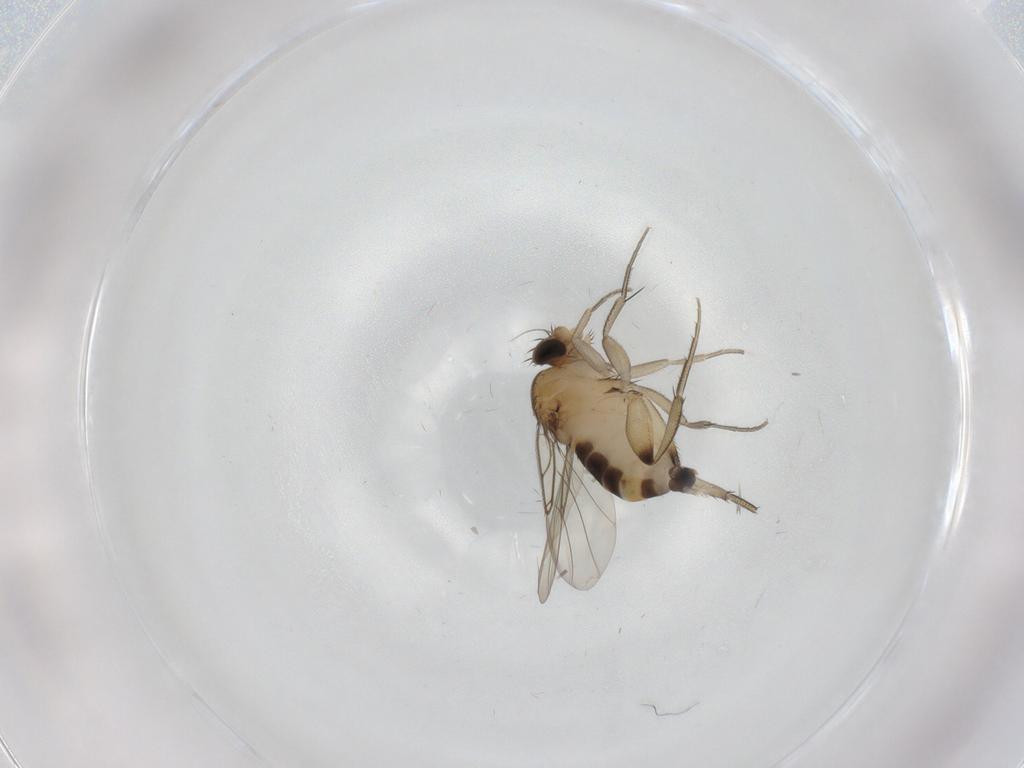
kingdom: Animalia
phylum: Arthropoda
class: Insecta
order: Diptera
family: Phoridae
